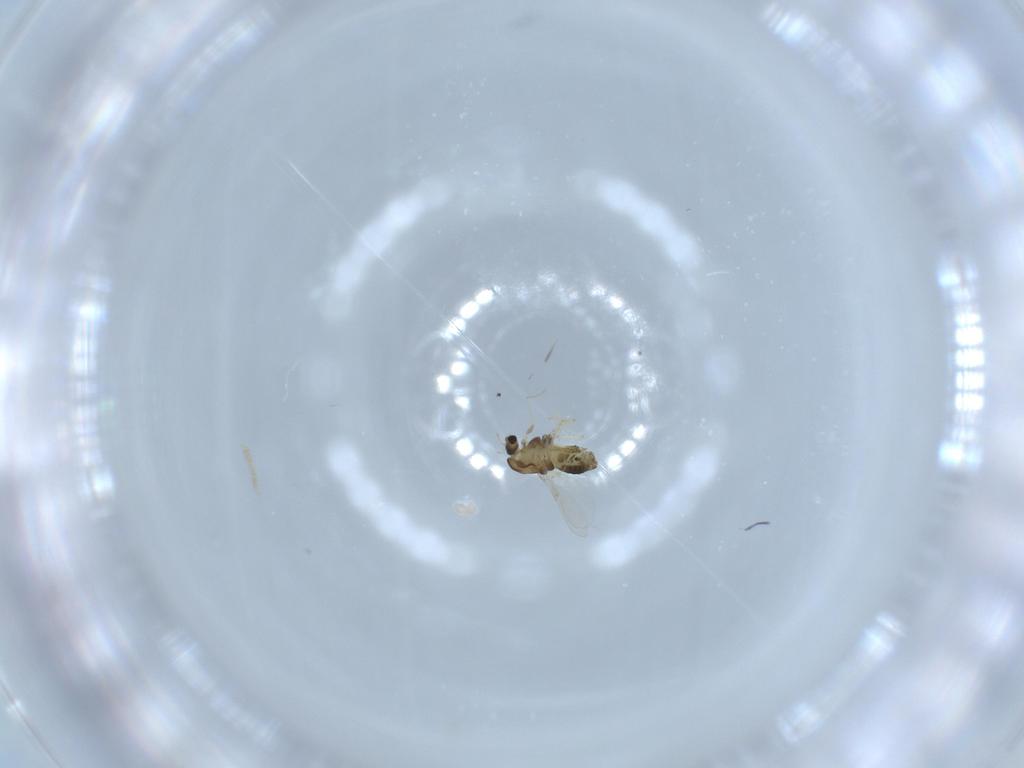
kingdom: Animalia
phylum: Arthropoda
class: Insecta
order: Diptera
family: Chironomidae
